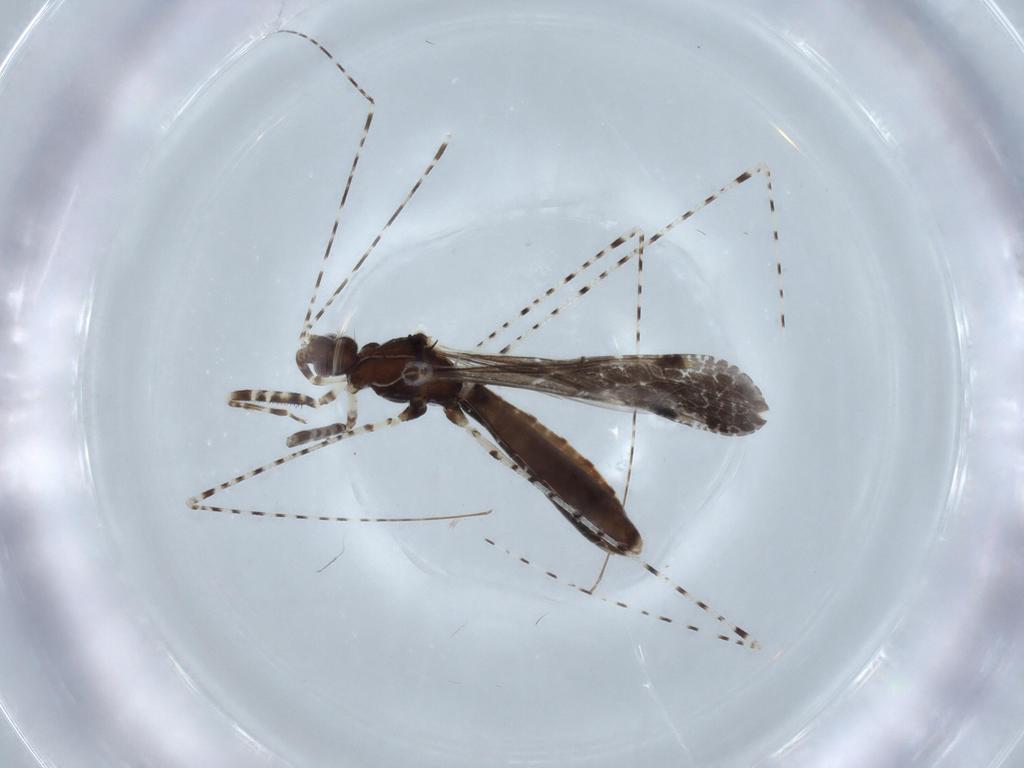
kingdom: Animalia
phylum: Arthropoda
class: Insecta
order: Hemiptera
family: Reduviidae
